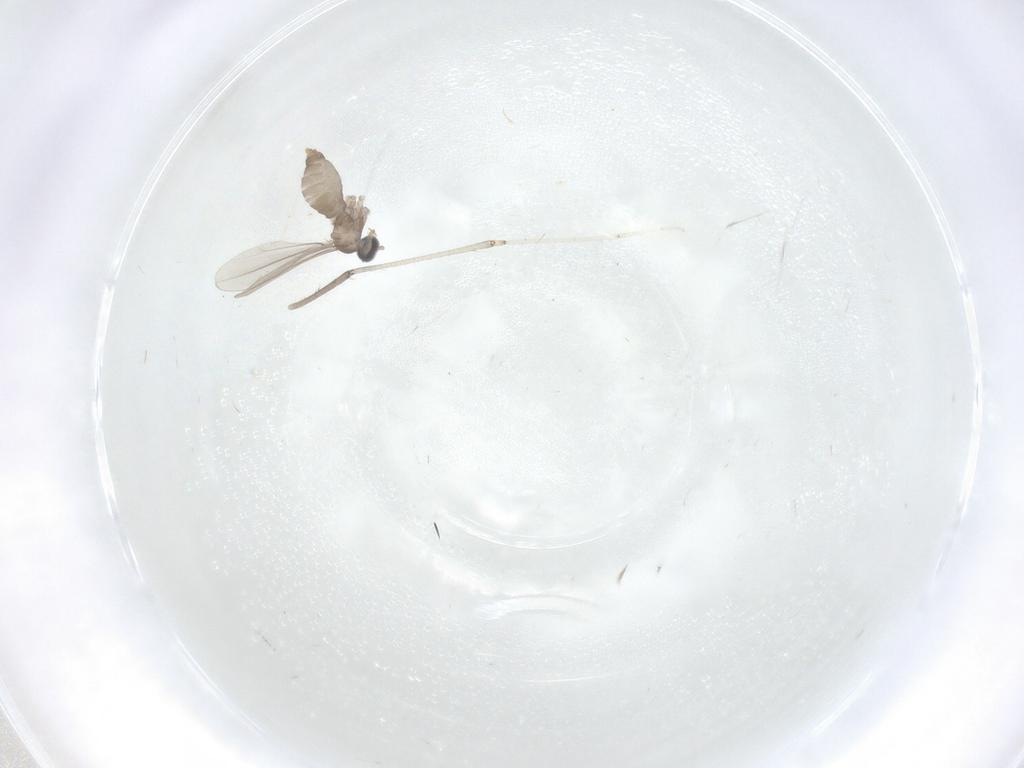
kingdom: Animalia
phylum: Arthropoda
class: Insecta
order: Diptera
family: Cecidomyiidae
